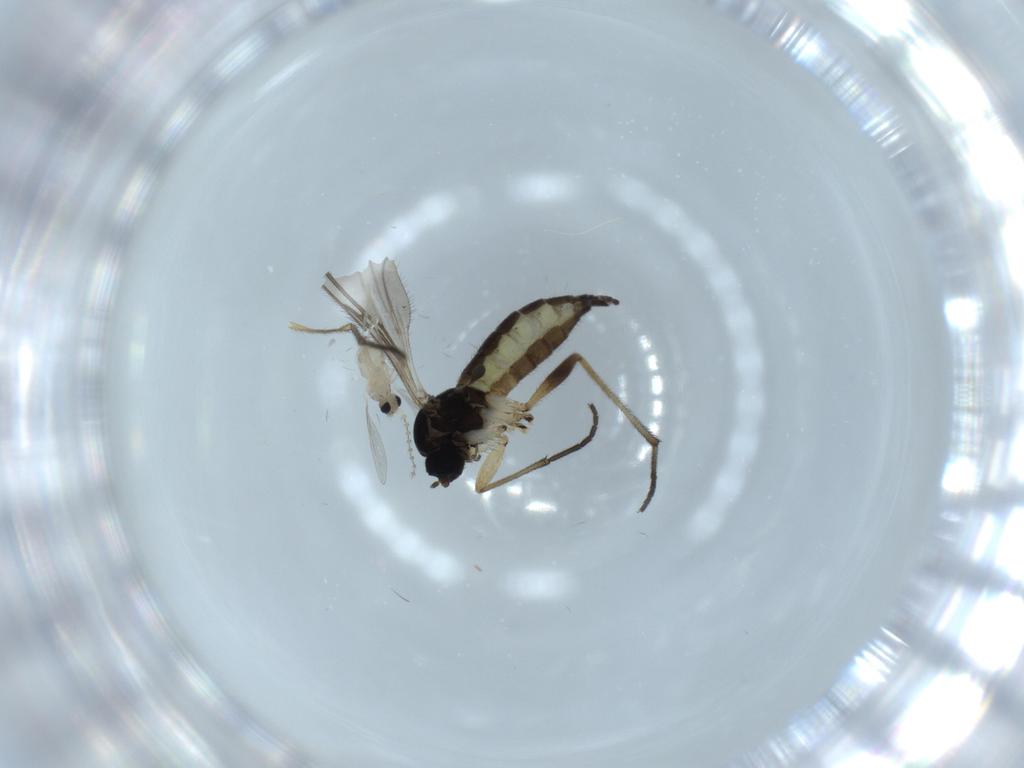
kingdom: Animalia
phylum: Arthropoda
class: Insecta
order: Diptera
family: Sciaridae
